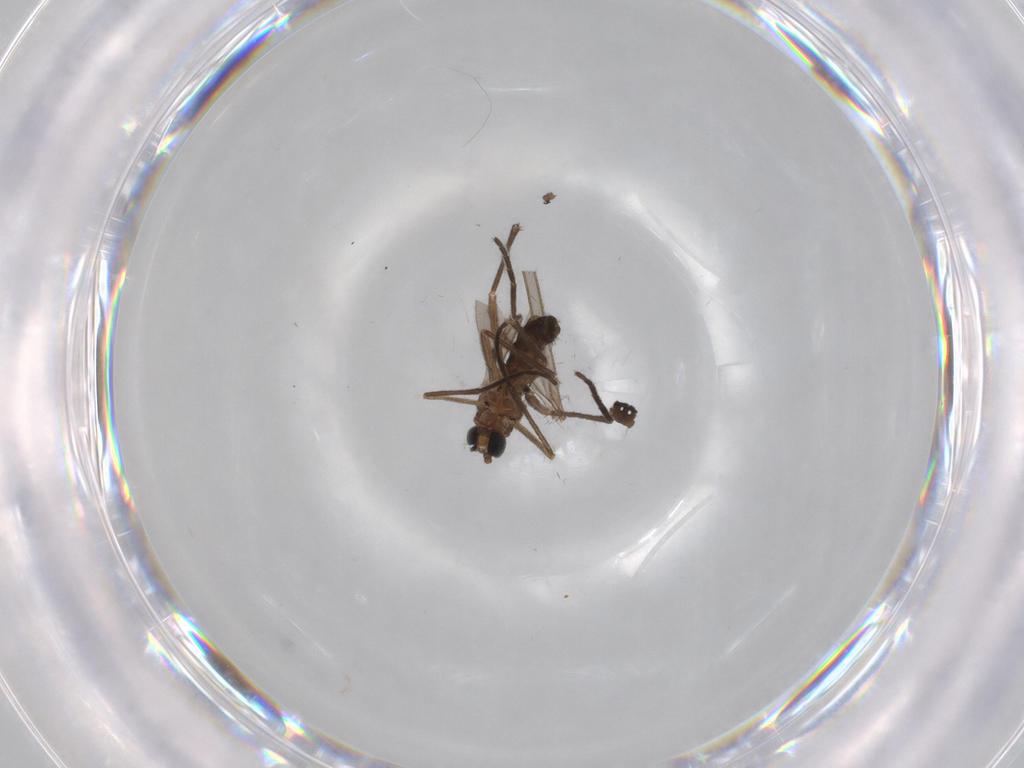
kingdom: Animalia
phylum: Arthropoda
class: Insecta
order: Diptera
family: Sciaridae
